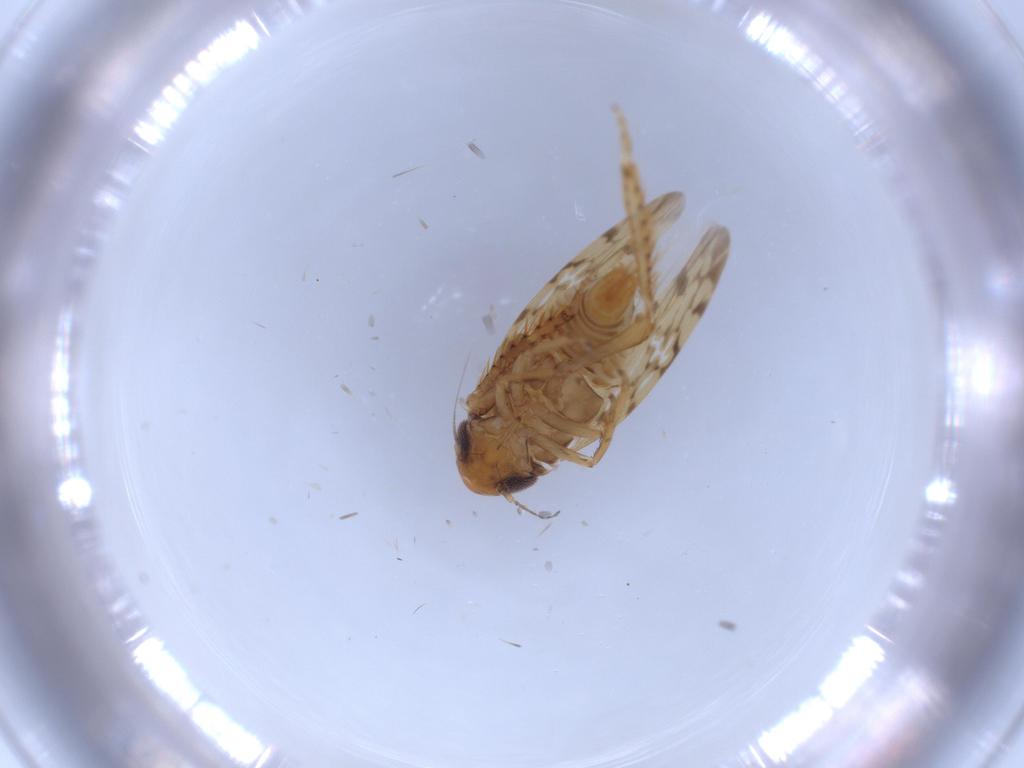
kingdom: Animalia
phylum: Arthropoda
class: Insecta
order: Hemiptera
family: Cicadellidae
